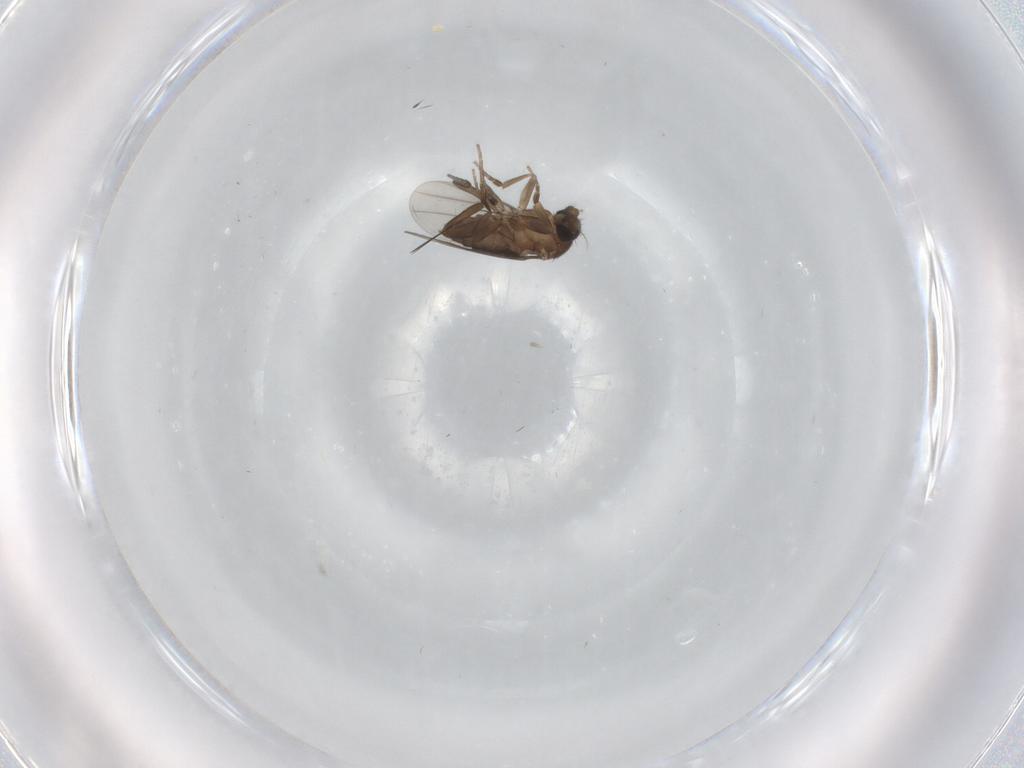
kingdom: Animalia
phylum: Arthropoda
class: Insecta
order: Diptera
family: Phoridae
